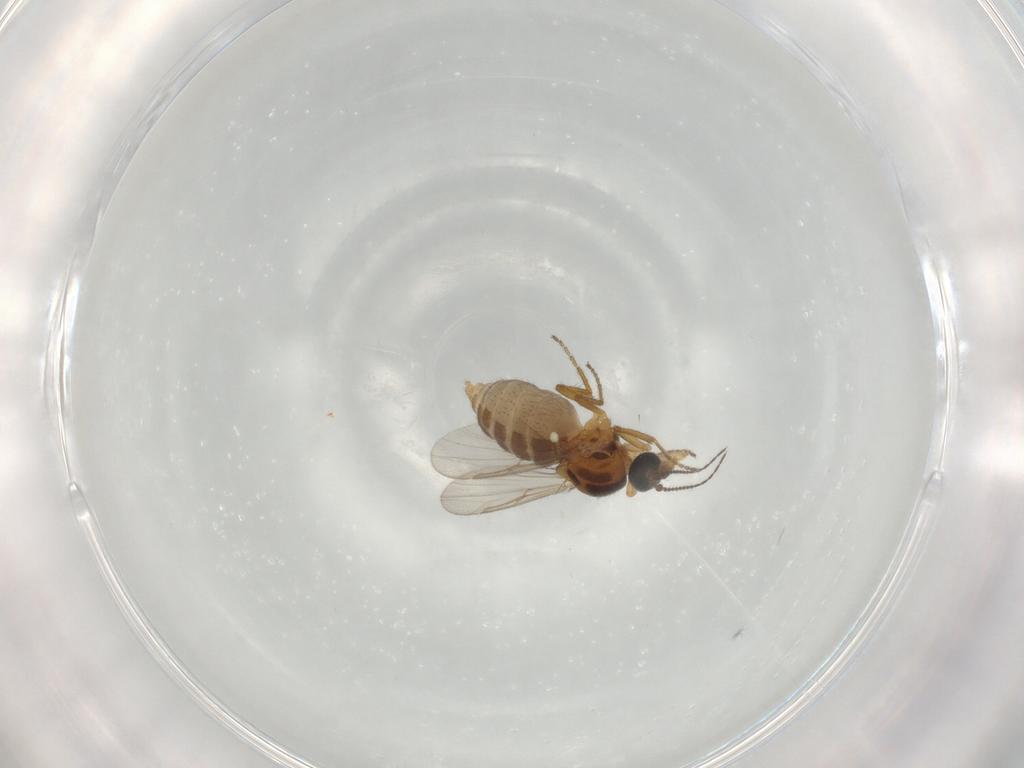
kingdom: Animalia
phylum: Arthropoda
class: Insecta
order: Diptera
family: Ceratopogonidae
